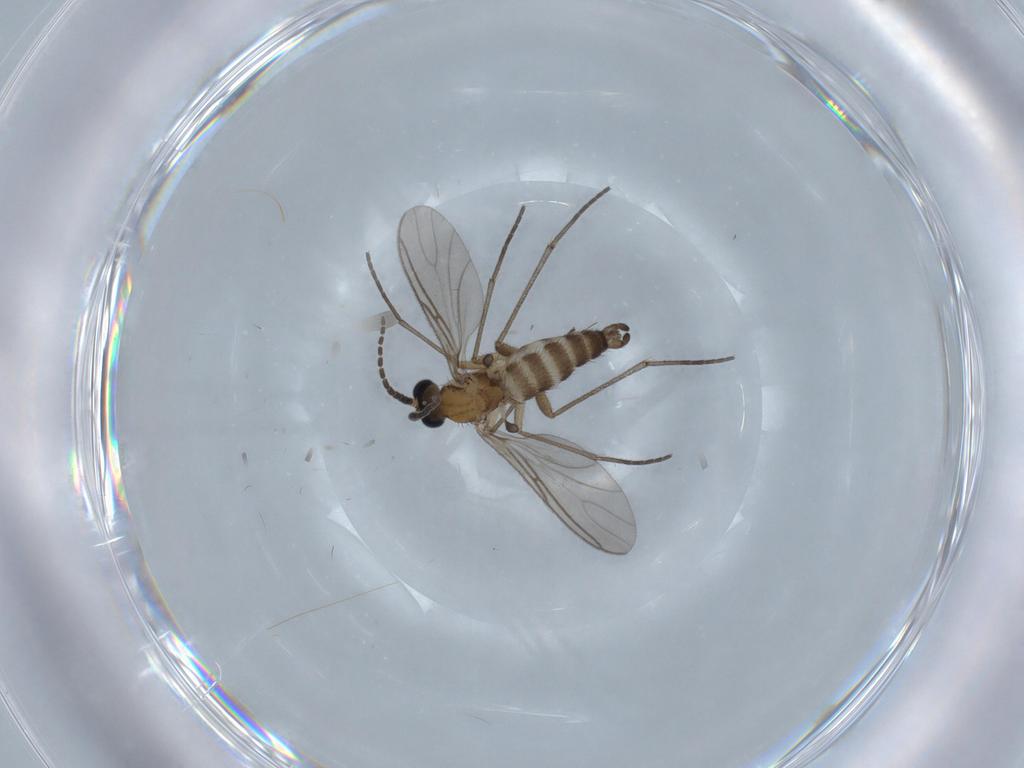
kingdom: Animalia
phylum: Arthropoda
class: Insecta
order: Diptera
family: Sciaridae
